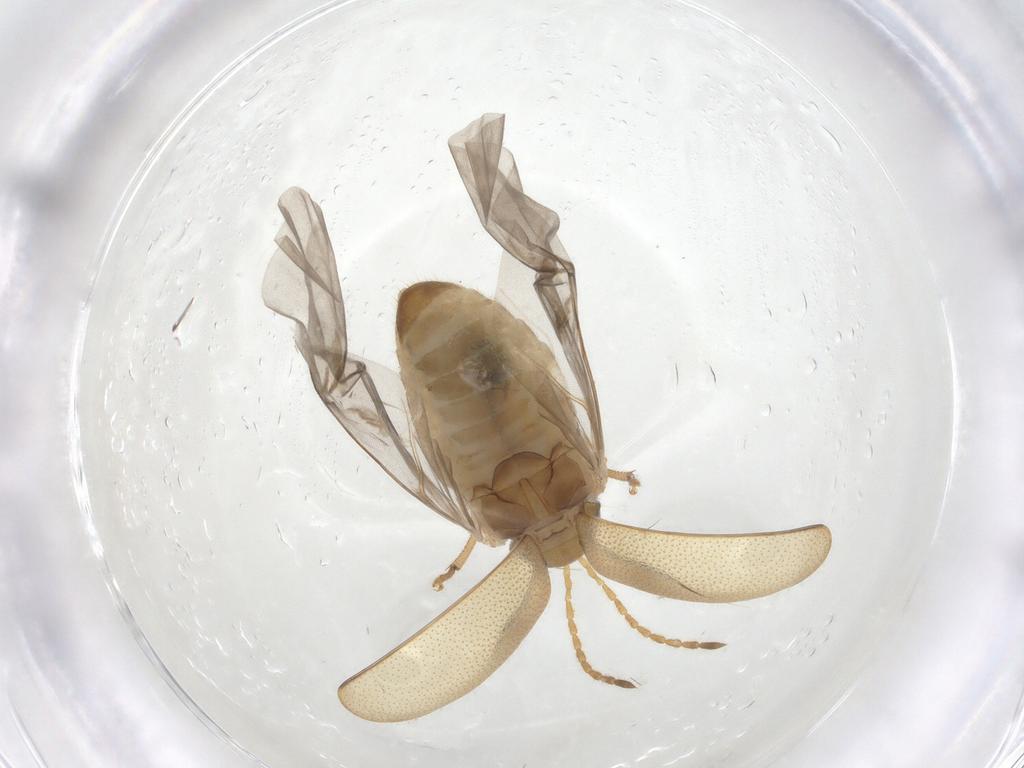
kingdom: Animalia
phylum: Arthropoda
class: Insecta
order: Coleoptera
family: Chrysomelidae
